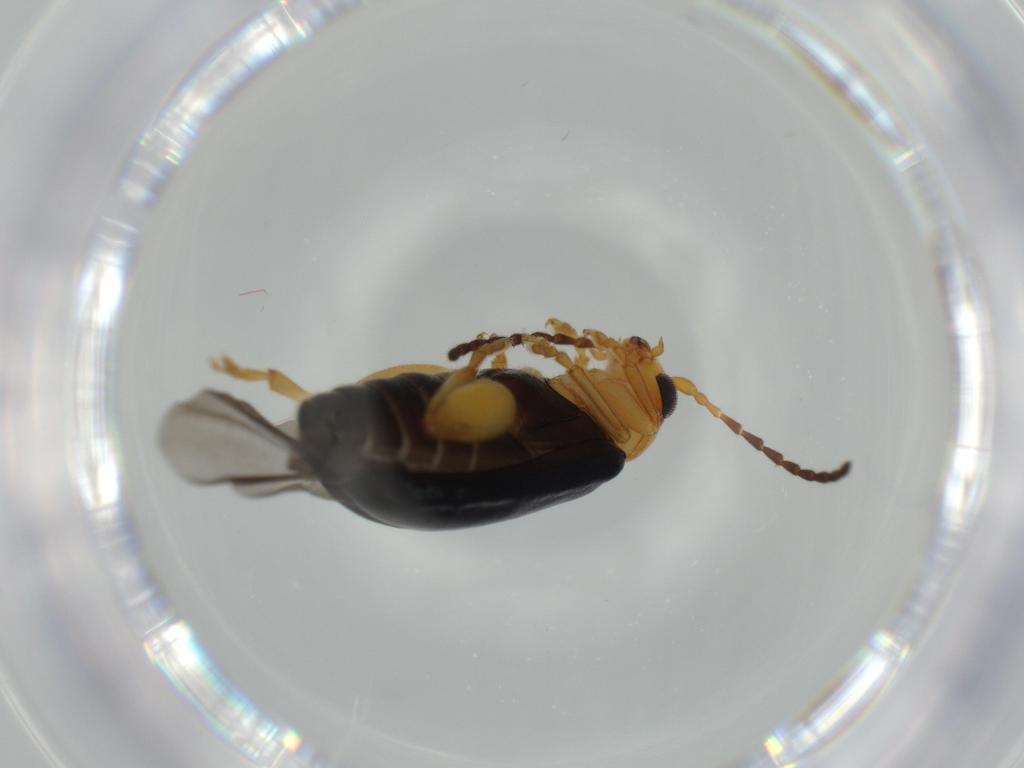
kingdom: Animalia
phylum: Arthropoda
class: Insecta
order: Coleoptera
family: Chrysomelidae
